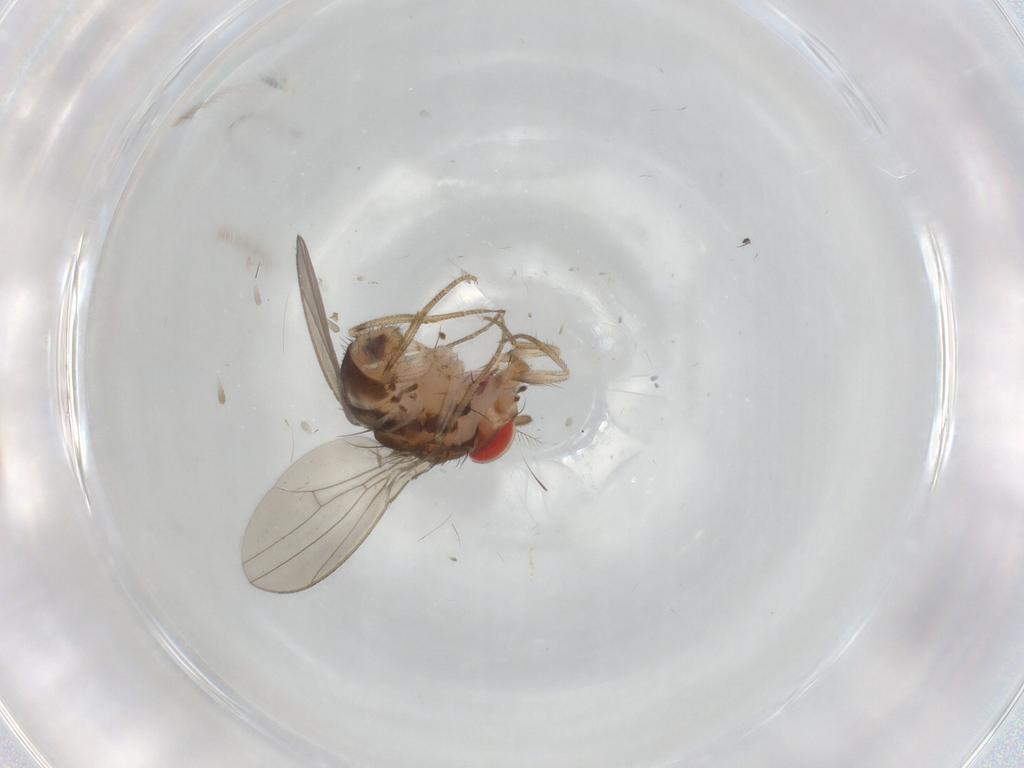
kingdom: Animalia
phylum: Arthropoda
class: Insecta
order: Diptera
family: Drosophilidae
